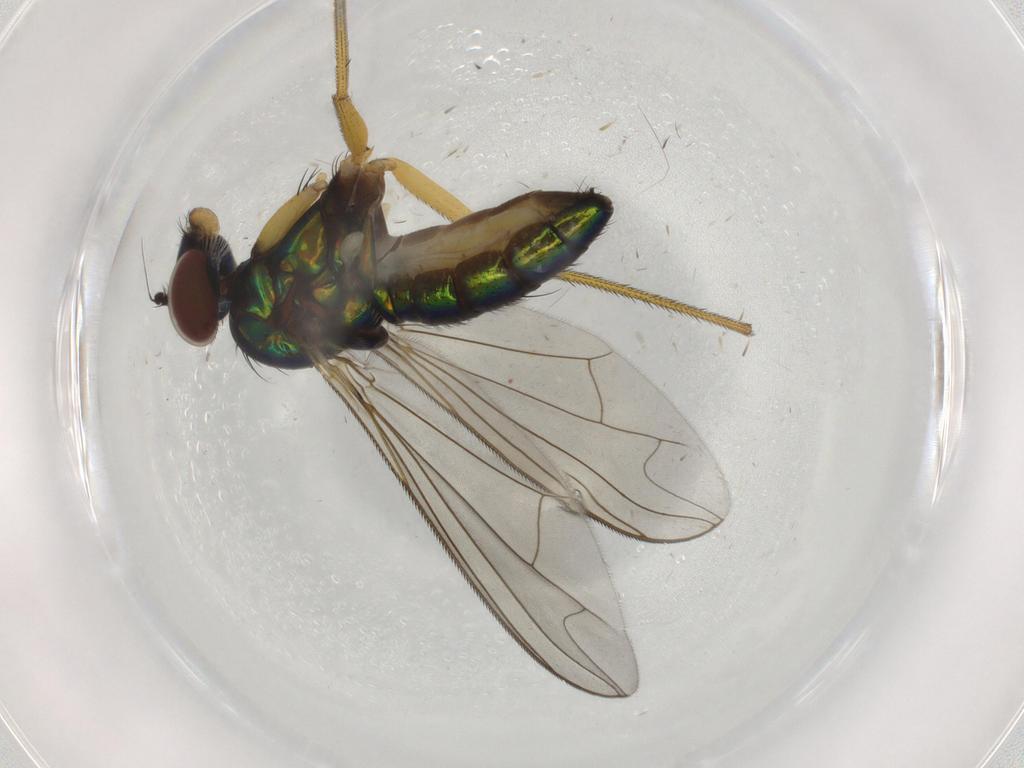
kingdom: Animalia
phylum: Arthropoda
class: Insecta
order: Diptera
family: Dolichopodidae
